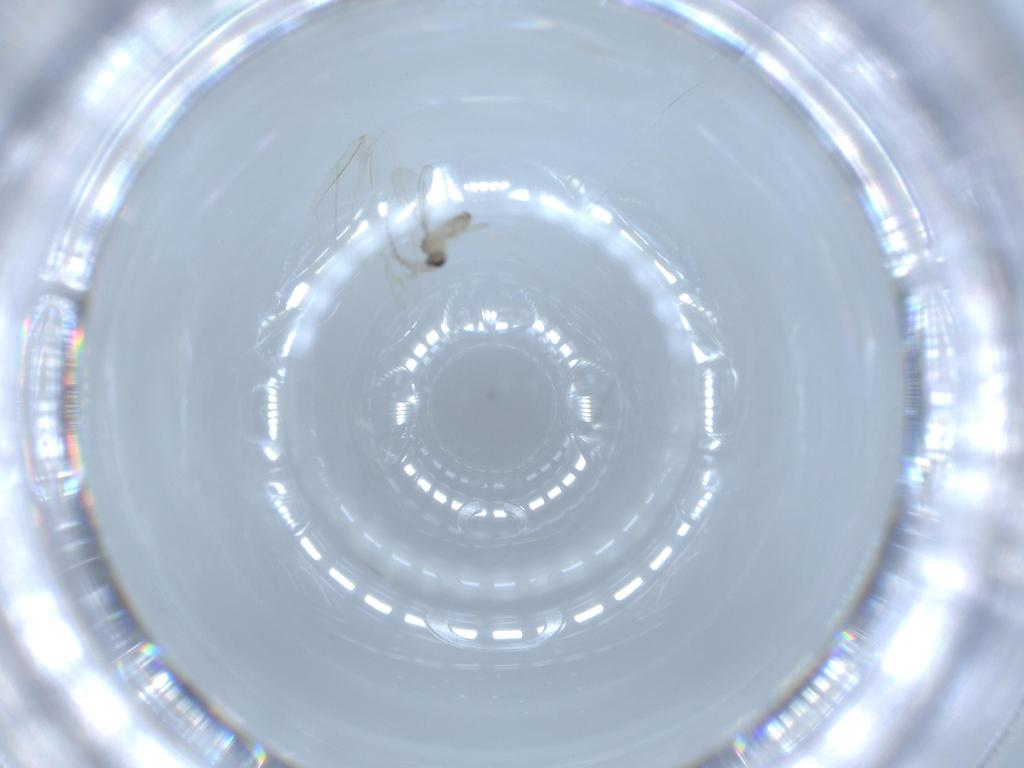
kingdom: Animalia
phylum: Arthropoda
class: Insecta
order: Diptera
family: Cecidomyiidae
